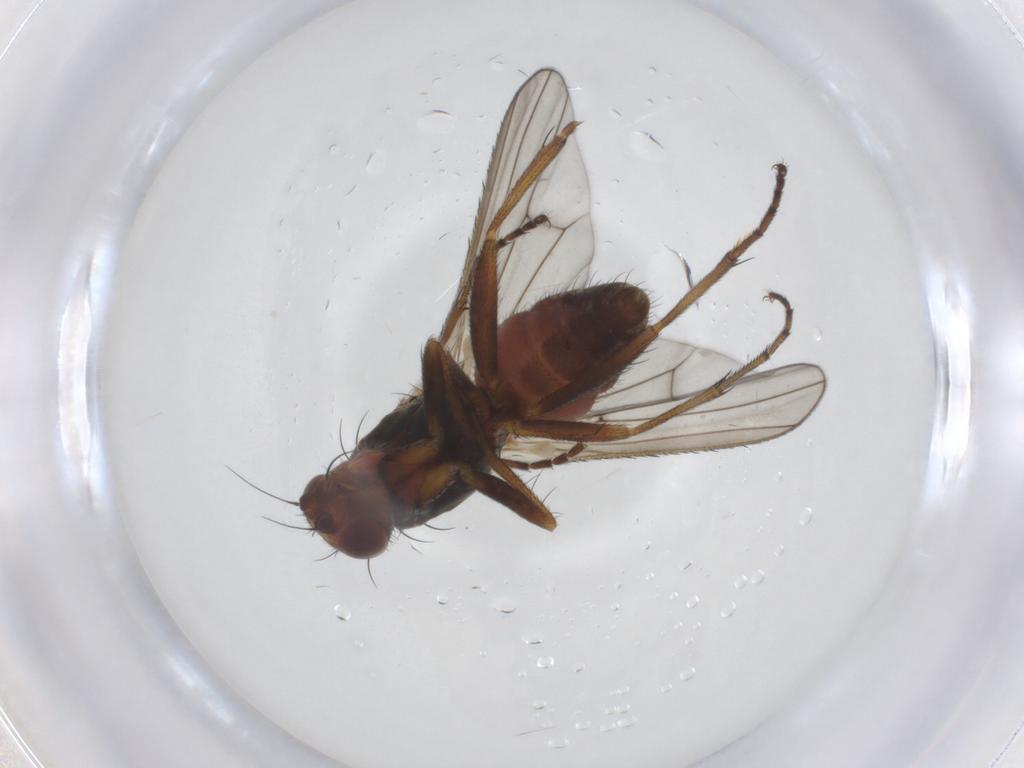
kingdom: Animalia
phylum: Arthropoda
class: Insecta
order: Diptera
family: Heleomyzidae
